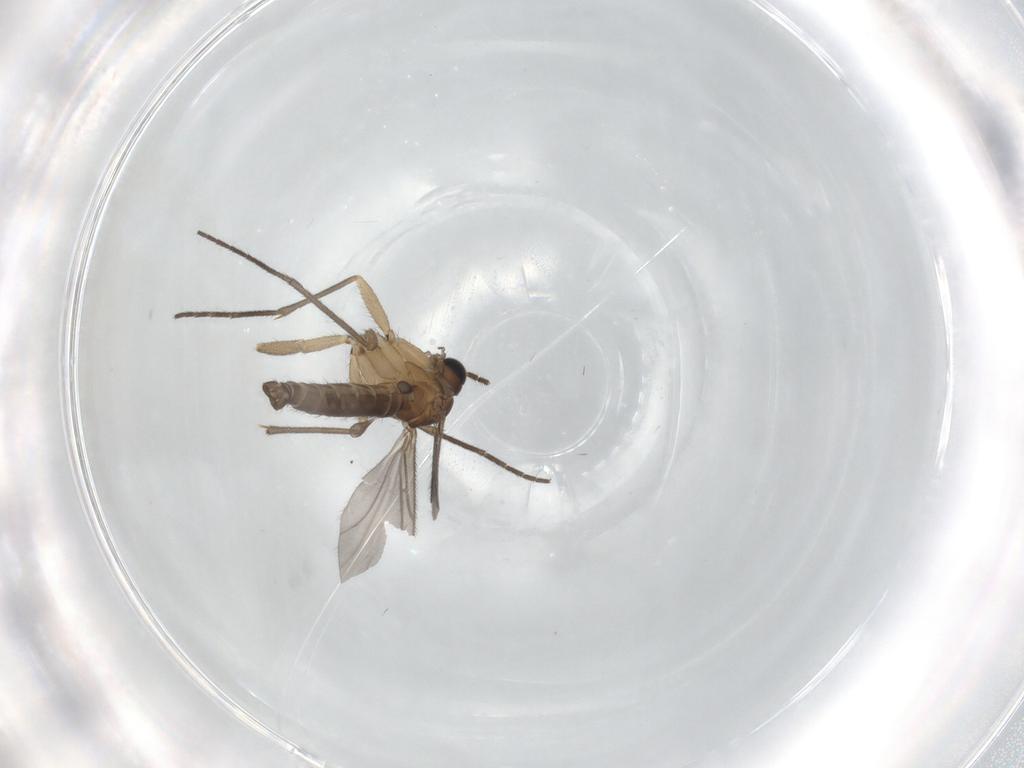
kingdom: Animalia
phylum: Arthropoda
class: Insecta
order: Diptera
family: Sciaridae
